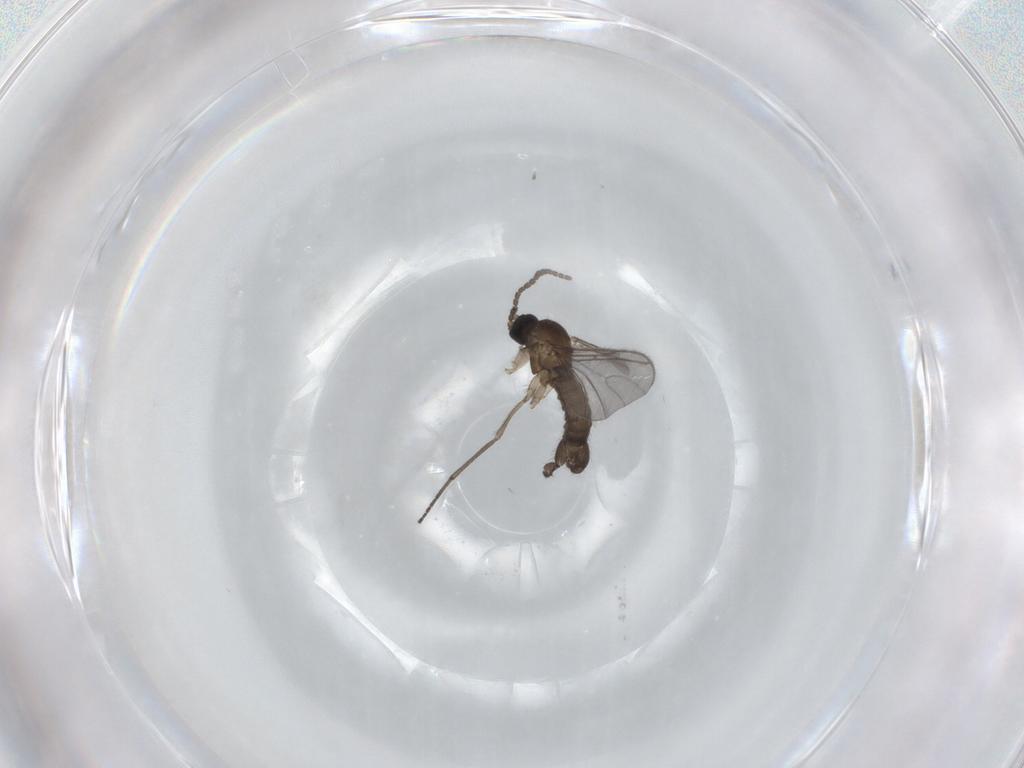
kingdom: Animalia
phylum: Arthropoda
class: Insecta
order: Diptera
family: Sciaridae
